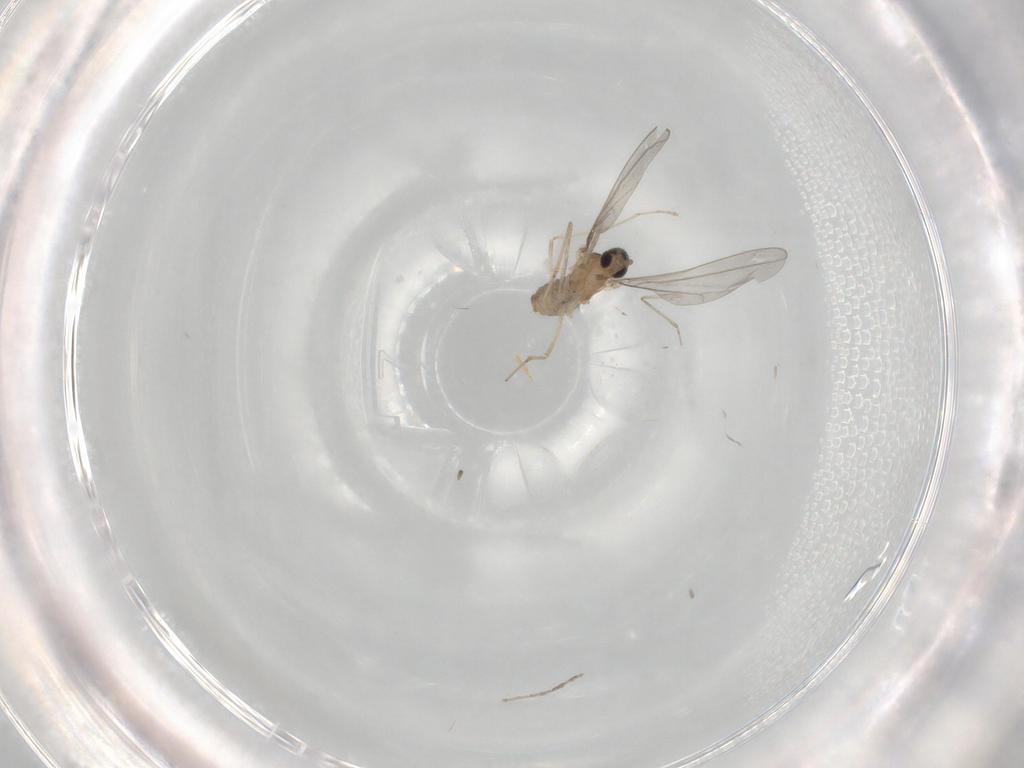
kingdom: Animalia
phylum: Arthropoda
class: Insecta
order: Diptera
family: Cecidomyiidae
